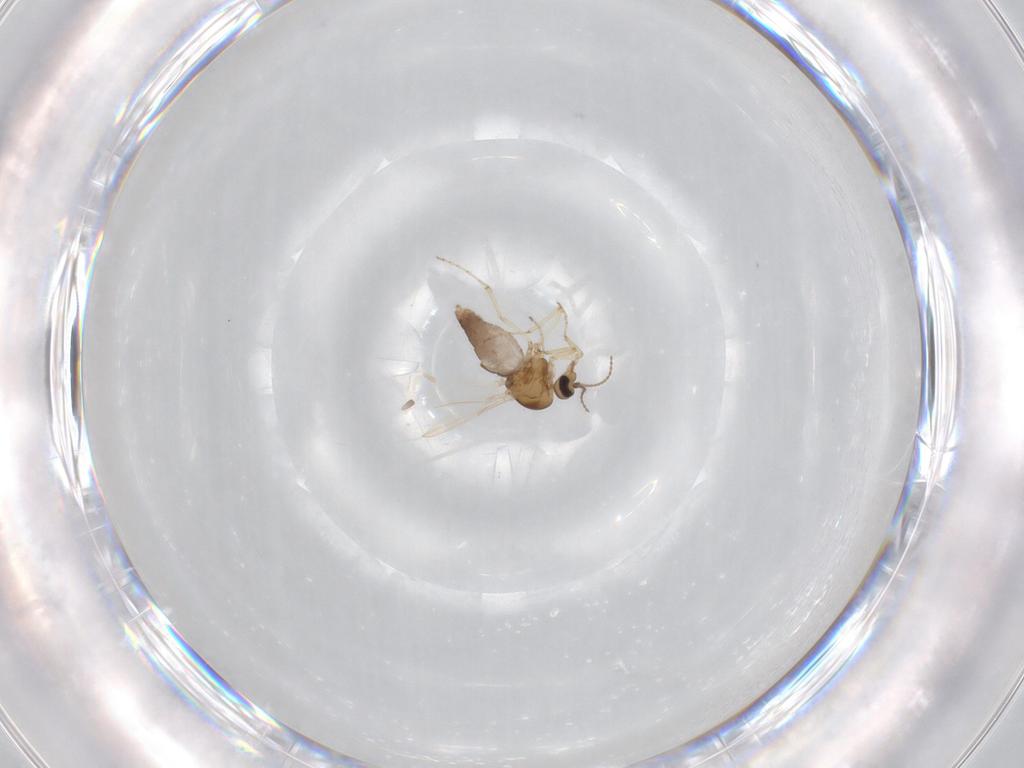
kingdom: Animalia
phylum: Arthropoda
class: Insecta
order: Diptera
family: Ceratopogonidae
